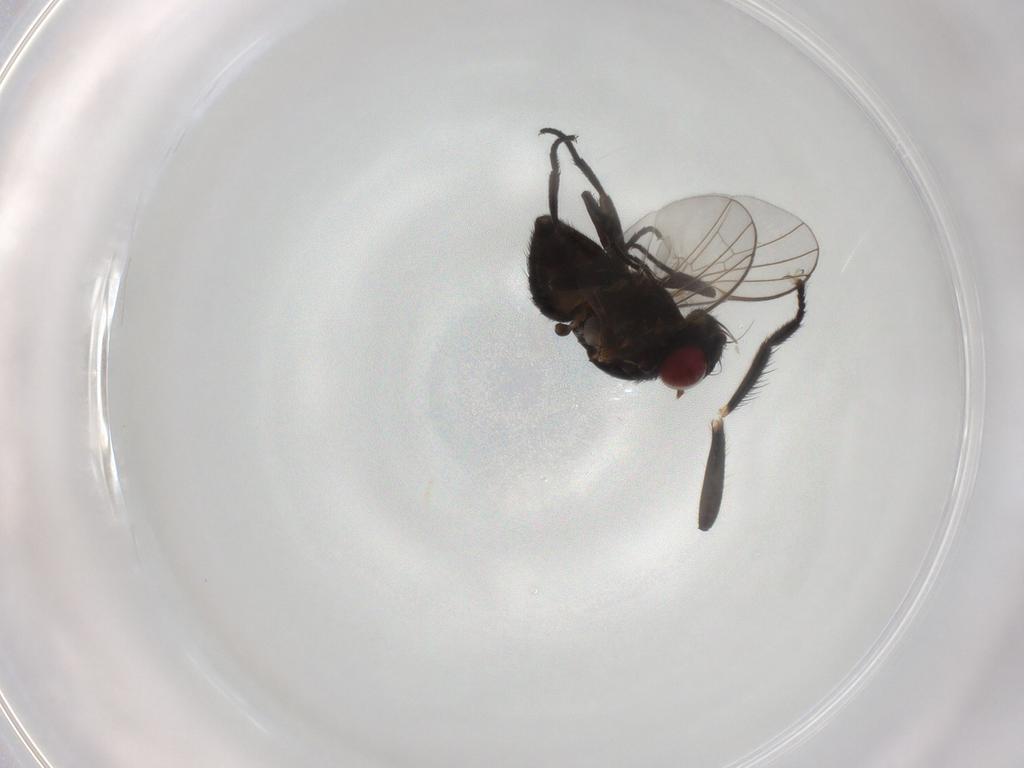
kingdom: Animalia
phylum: Arthropoda
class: Insecta
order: Diptera
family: Empididae
